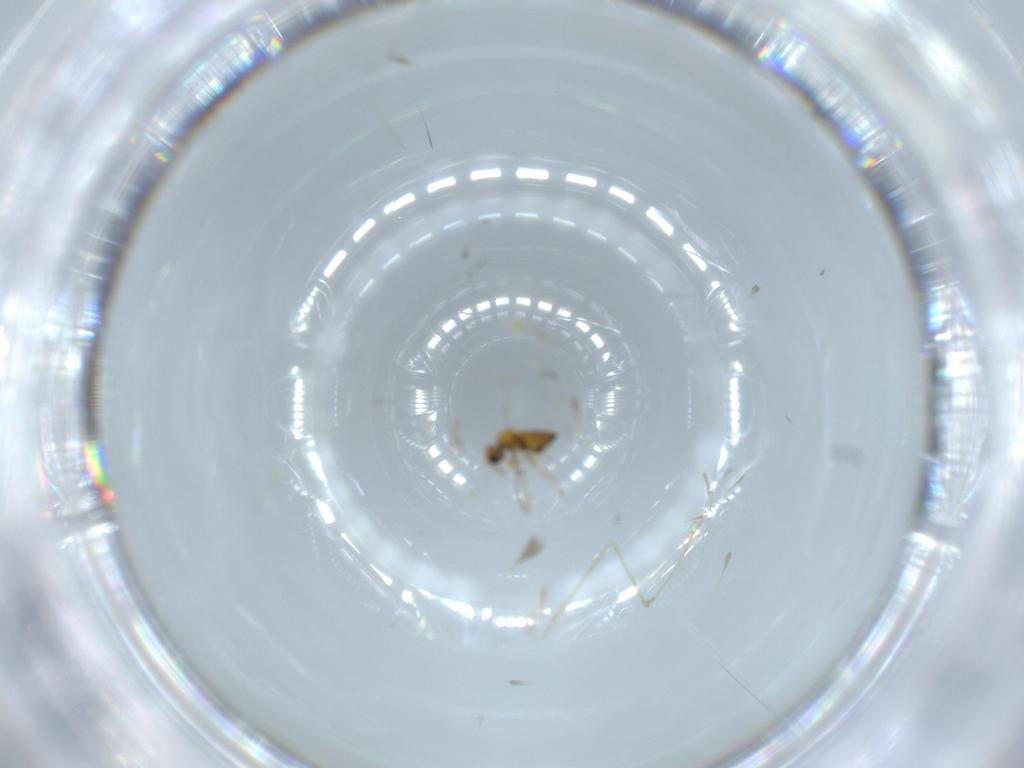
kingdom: Animalia
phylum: Arthropoda
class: Insecta
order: Hymenoptera
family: Trichogrammatidae
